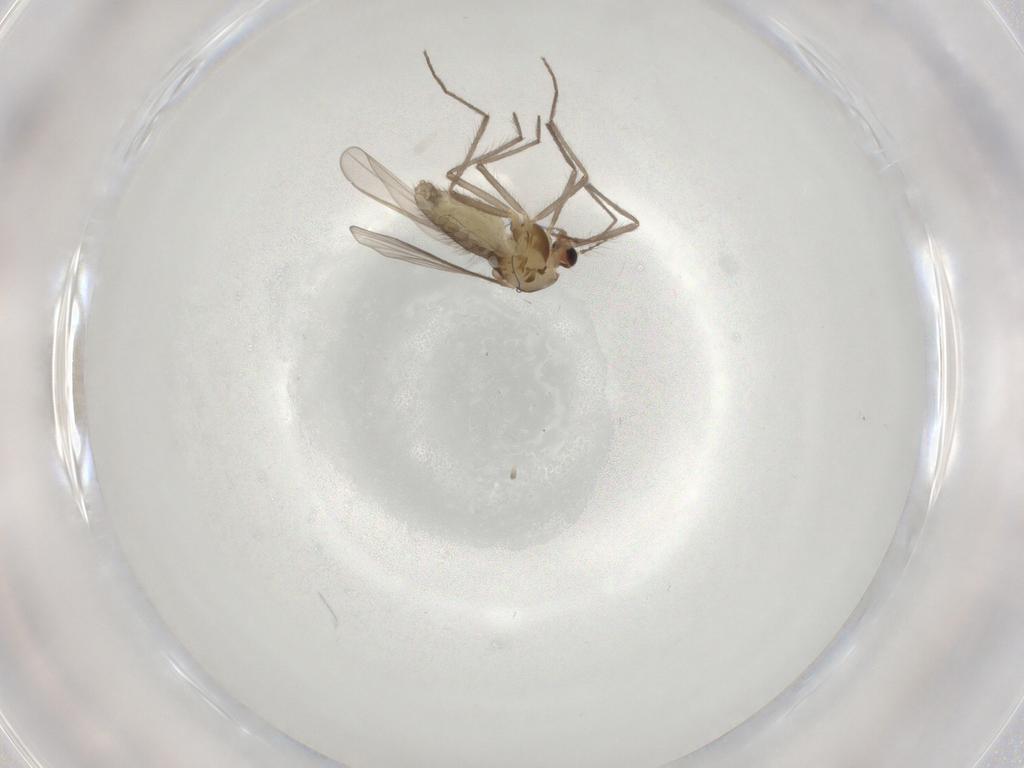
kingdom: Animalia
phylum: Arthropoda
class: Insecta
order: Diptera
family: Chironomidae
